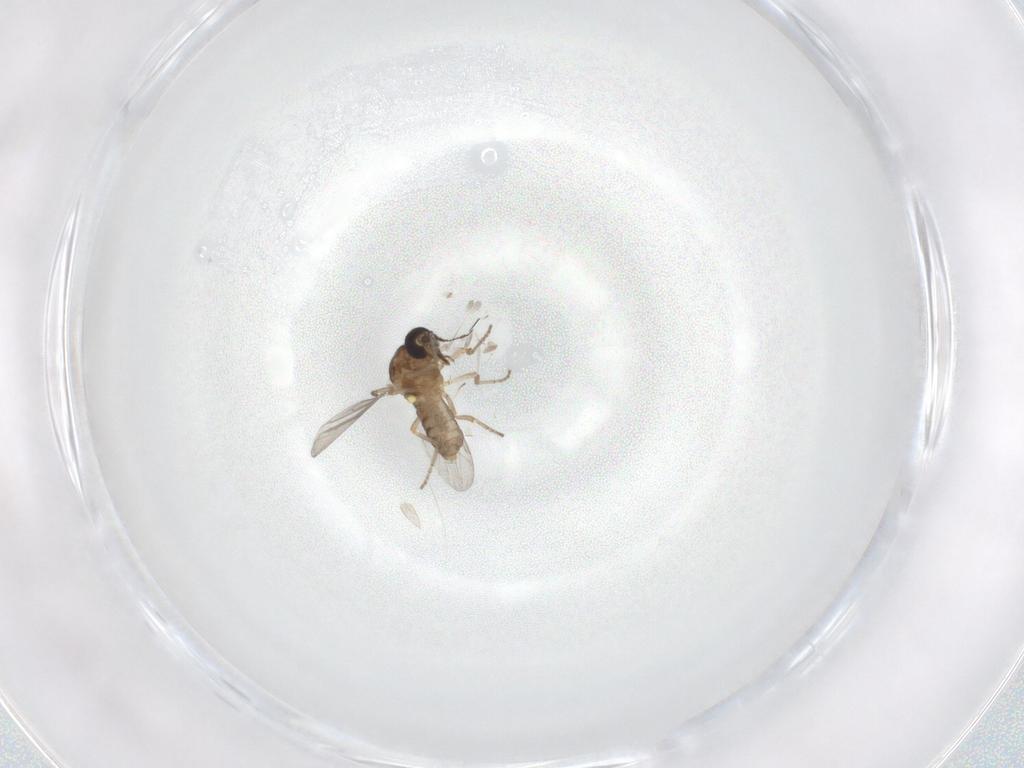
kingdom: Animalia
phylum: Arthropoda
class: Insecta
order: Diptera
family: Ceratopogonidae
